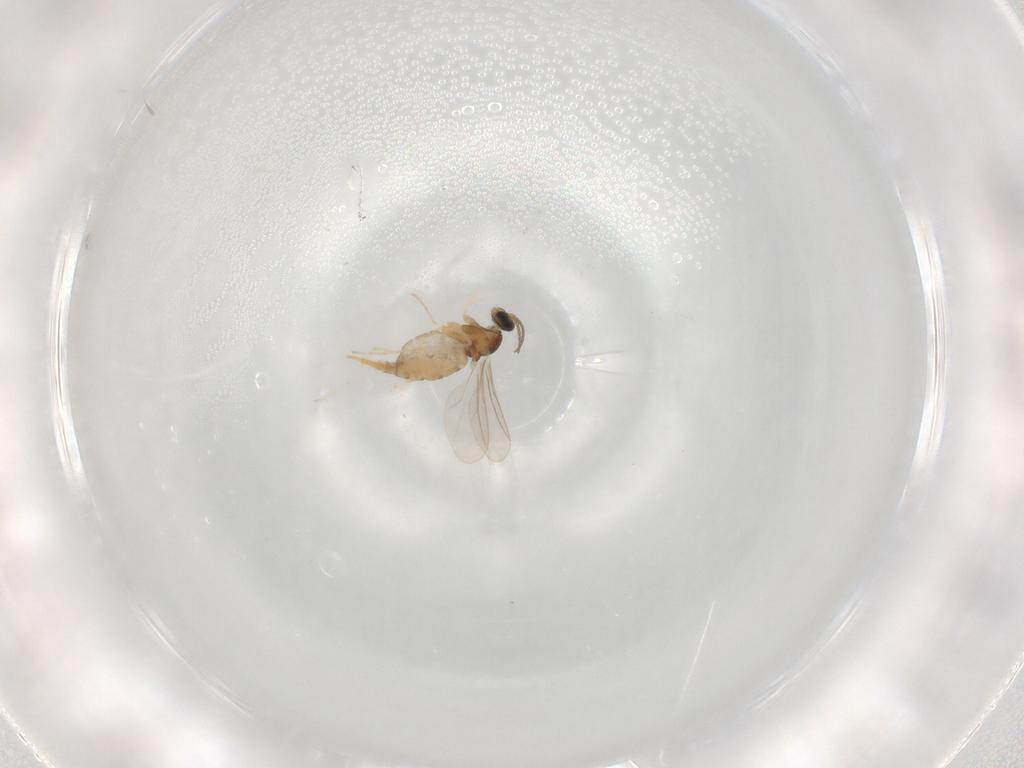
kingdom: Animalia
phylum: Arthropoda
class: Insecta
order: Diptera
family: Cecidomyiidae
